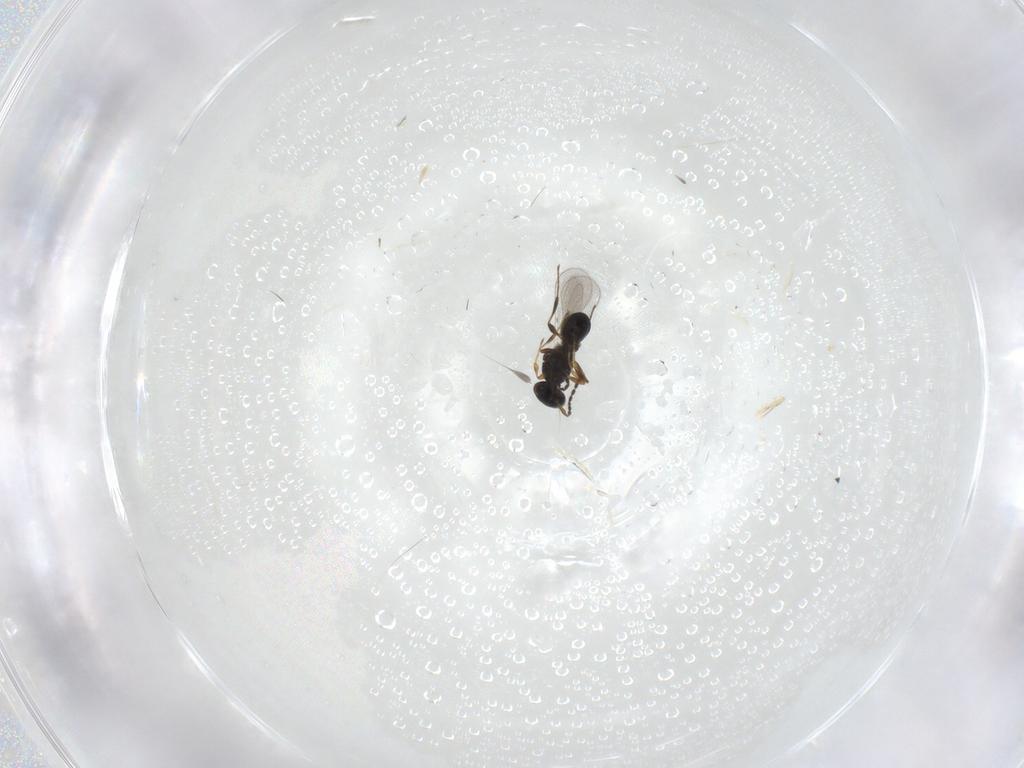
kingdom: Animalia
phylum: Arthropoda
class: Insecta
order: Hymenoptera
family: Platygastridae
